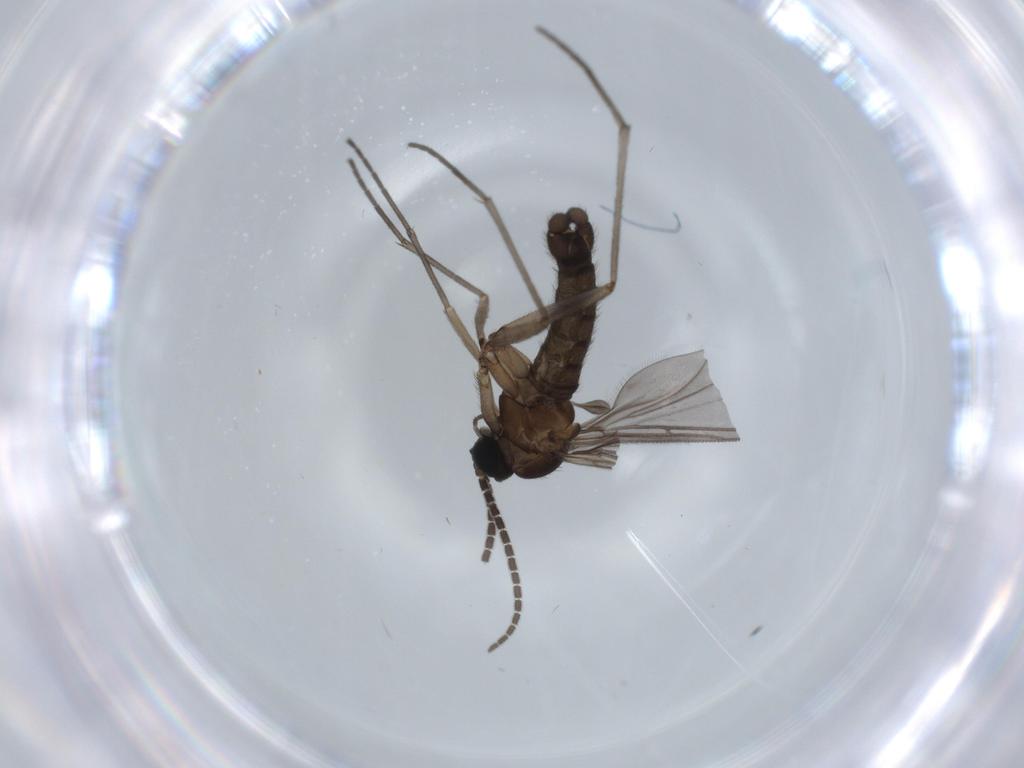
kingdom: Animalia
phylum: Arthropoda
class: Insecta
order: Diptera
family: Sciaridae
